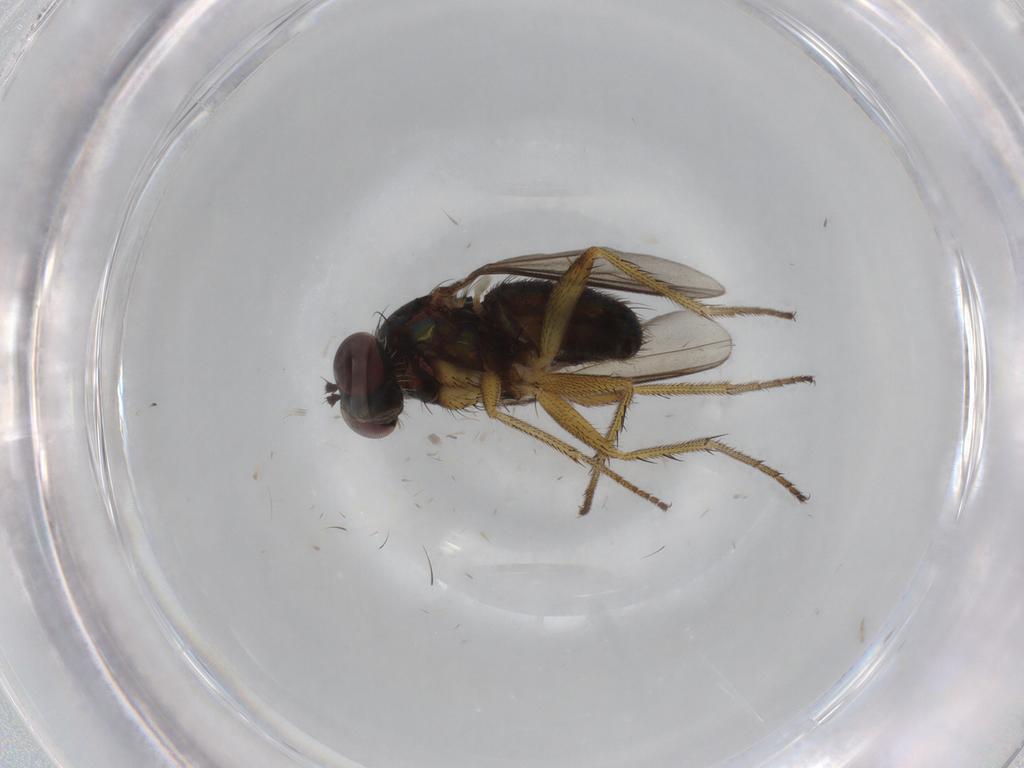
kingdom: Animalia
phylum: Arthropoda
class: Insecta
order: Diptera
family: Dolichopodidae
